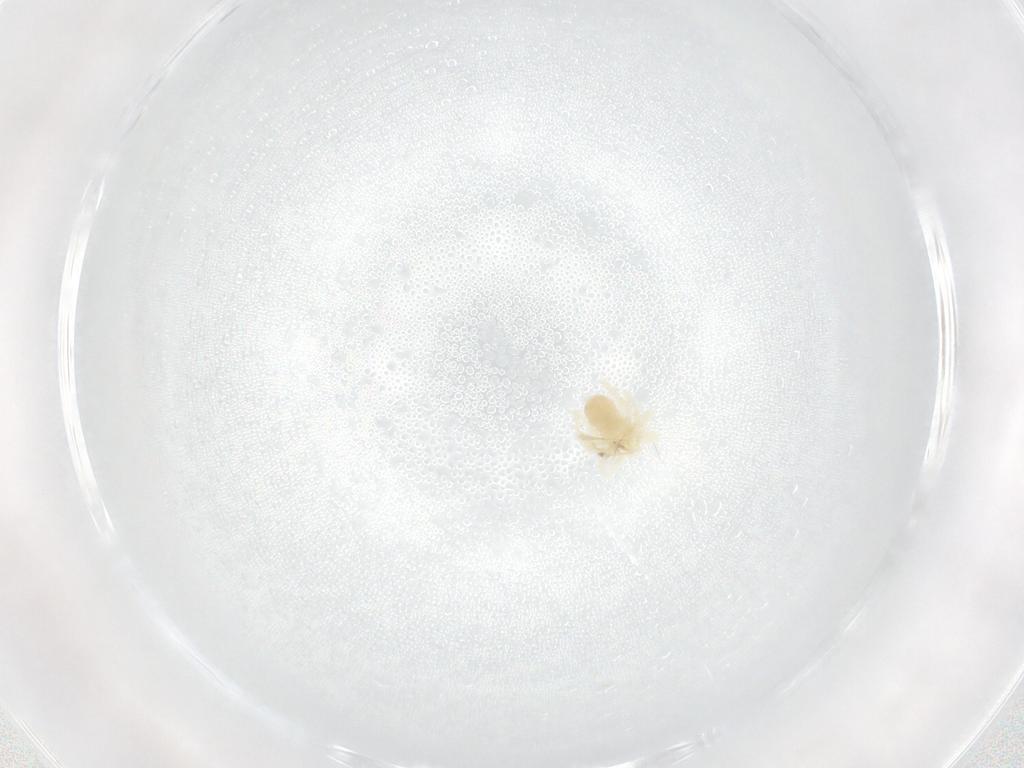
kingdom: Animalia
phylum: Arthropoda
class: Arachnida
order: Trombidiformes
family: Anystidae
